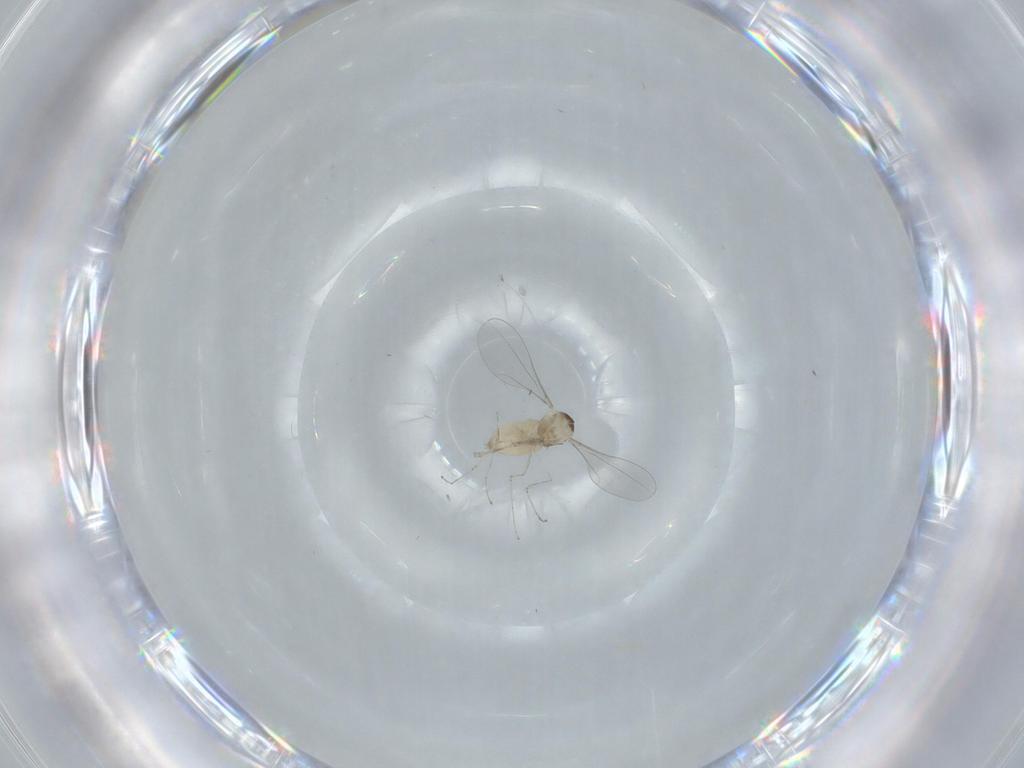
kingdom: Animalia
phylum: Arthropoda
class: Insecta
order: Diptera
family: Cecidomyiidae
